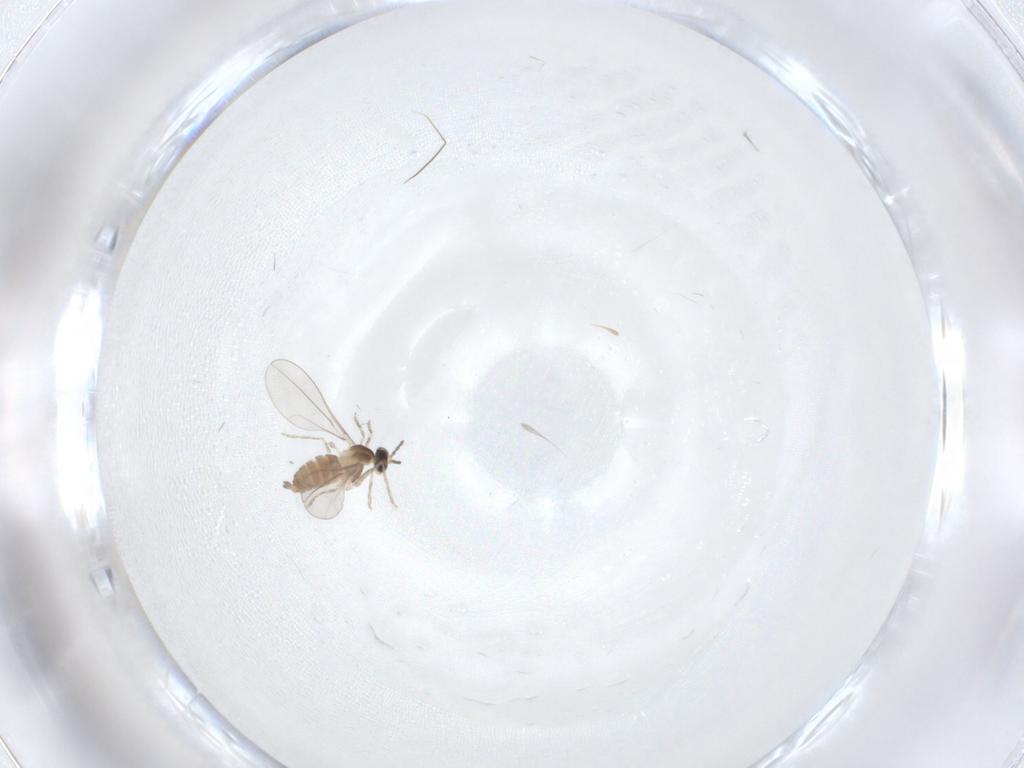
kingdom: Animalia
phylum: Arthropoda
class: Insecta
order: Diptera
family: Cecidomyiidae
